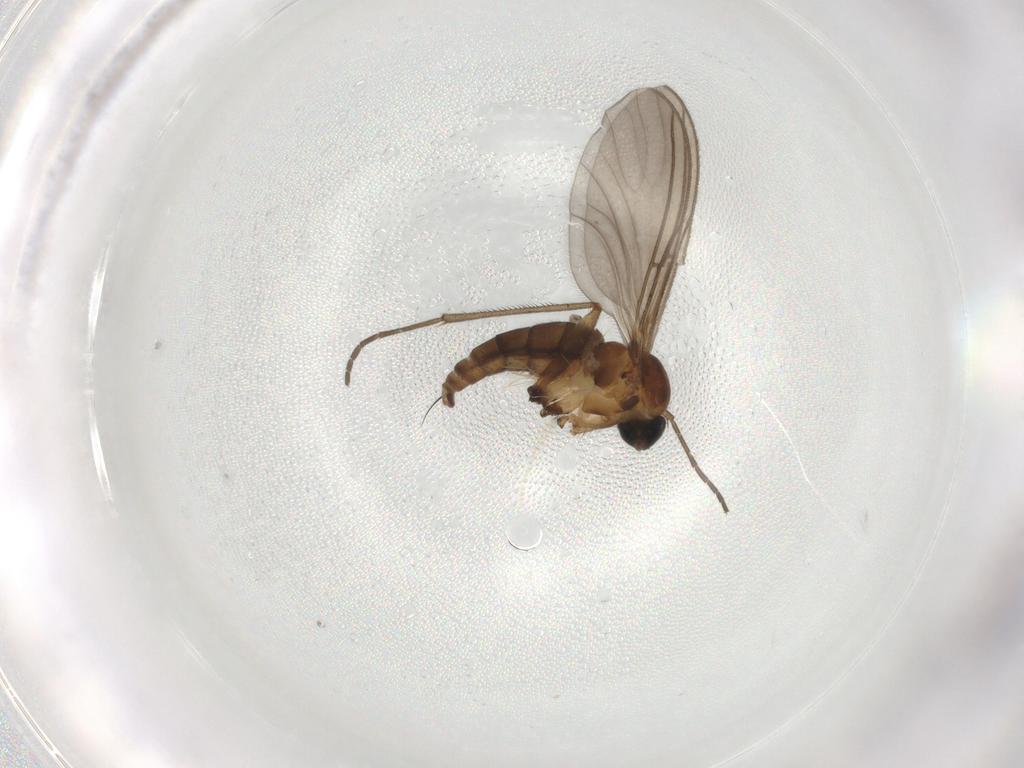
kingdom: Animalia
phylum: Arthropoda
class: Insecta
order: Diptera
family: Sciaridae
